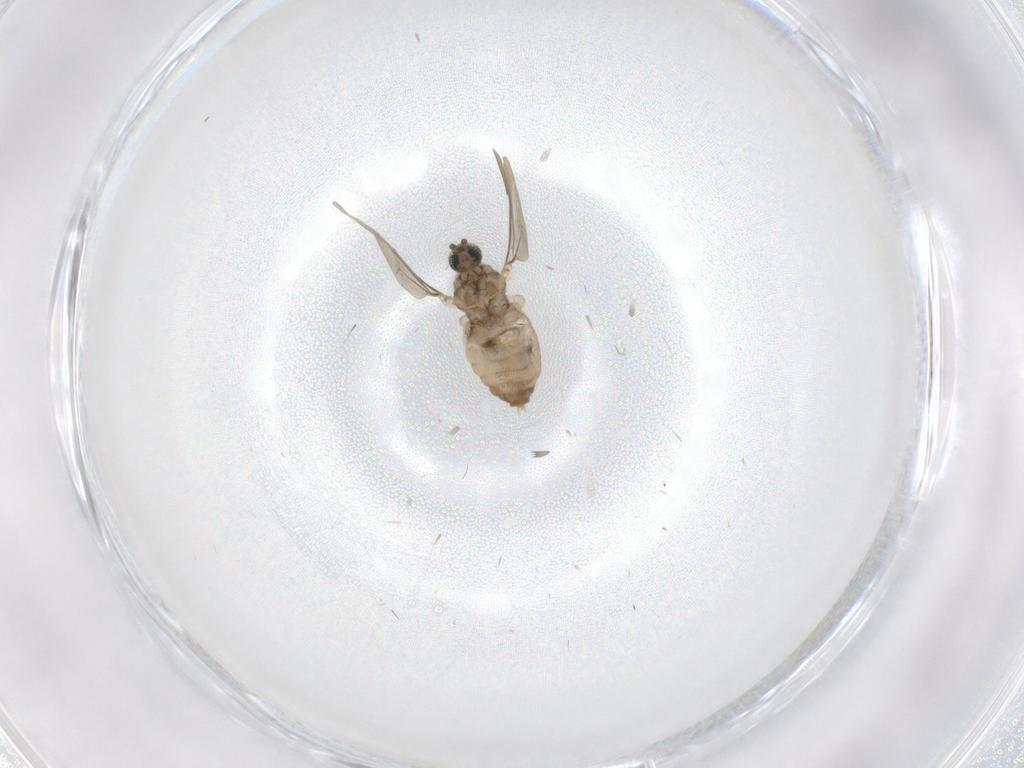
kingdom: Animalia
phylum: Arthropoda
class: Insecta
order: Diptera
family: Cecidomyiidae
